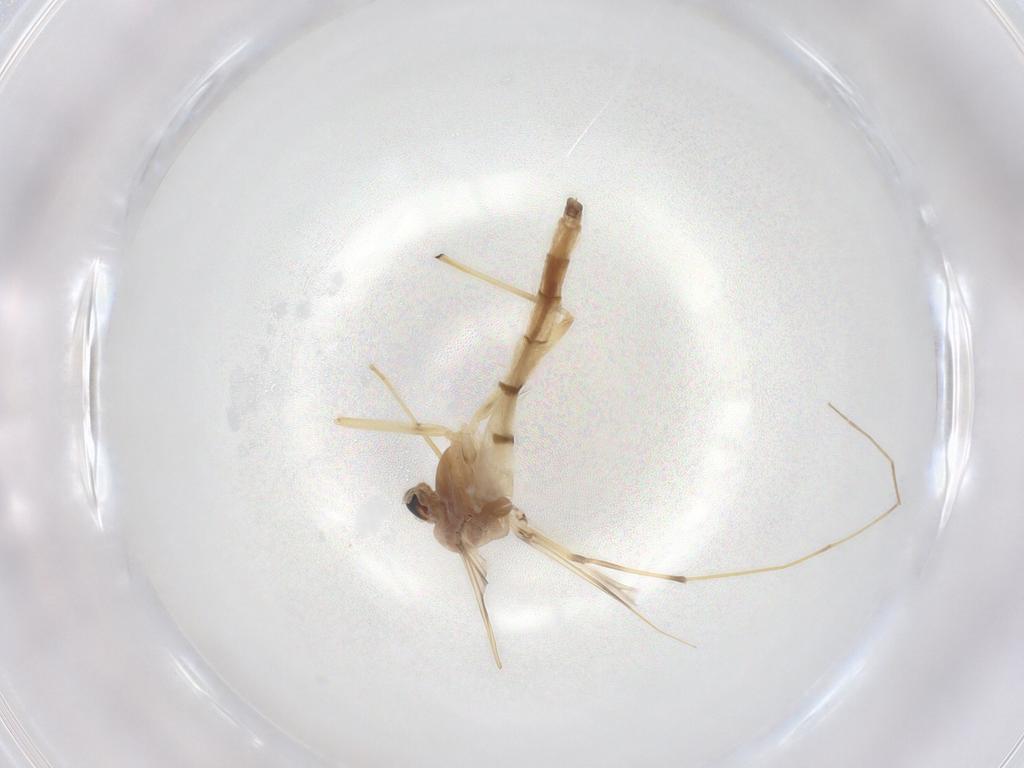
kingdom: Animalia
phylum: Arthropoda
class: Insecta
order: Diptera
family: Chironomidae
